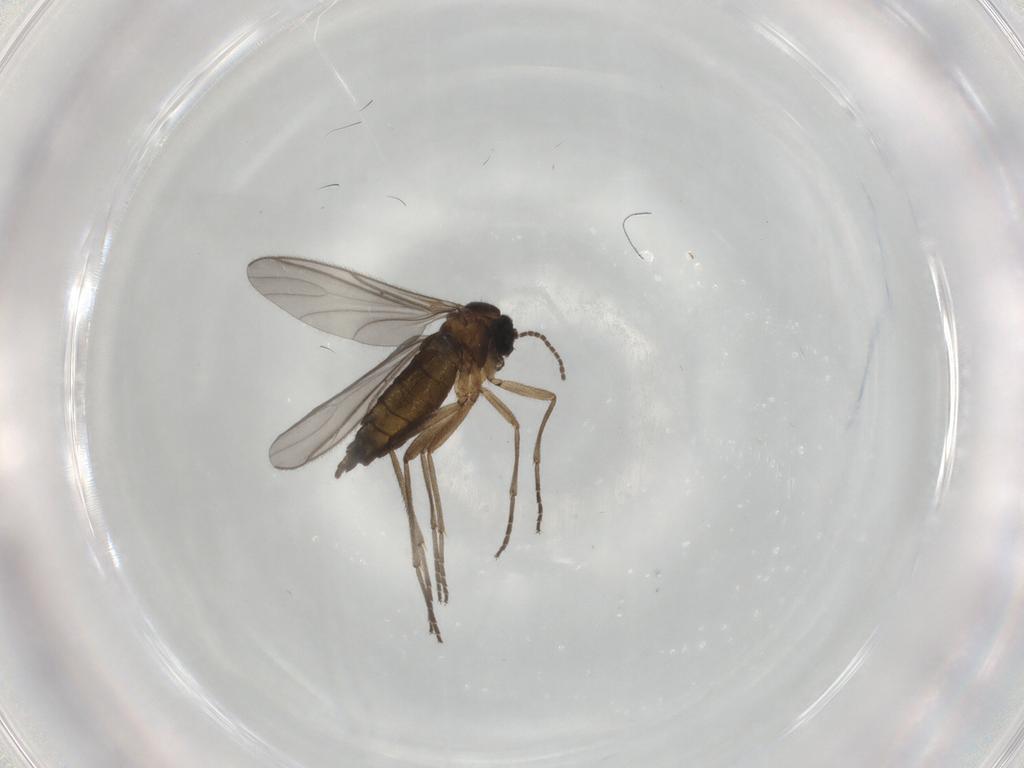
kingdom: Animalia
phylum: Arthropoda
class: Insecta
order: Diptera
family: Sciaridae
